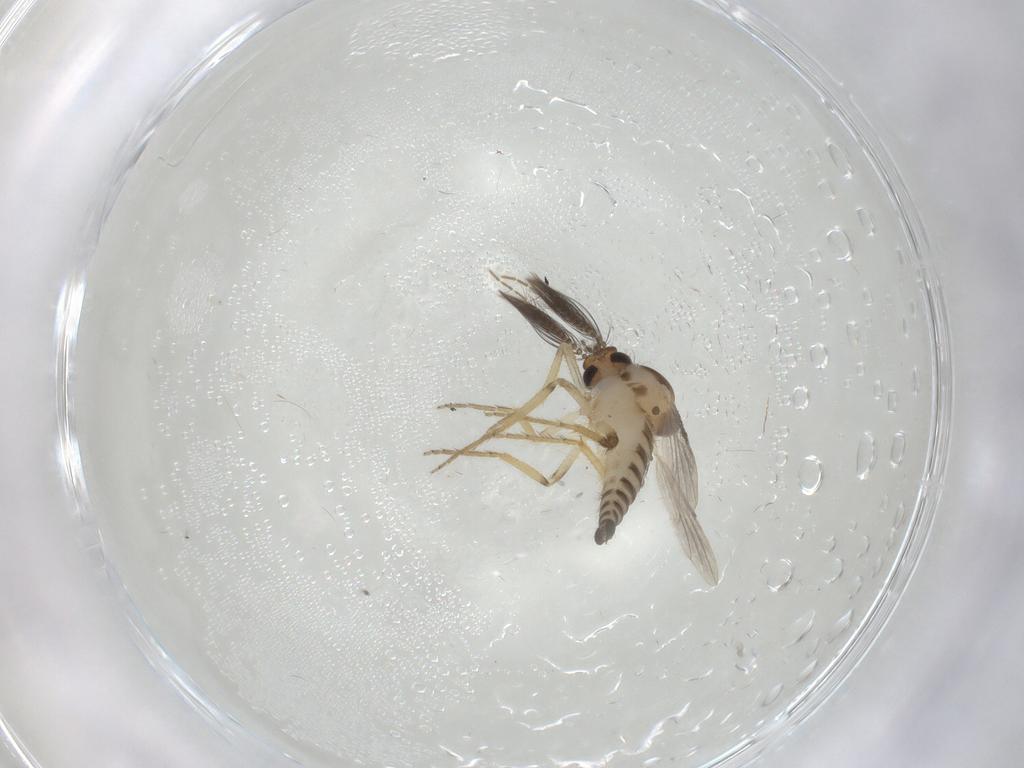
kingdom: Animalia
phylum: Arthropoda
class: Insecta
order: Diptera
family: Ceratopogonidae
